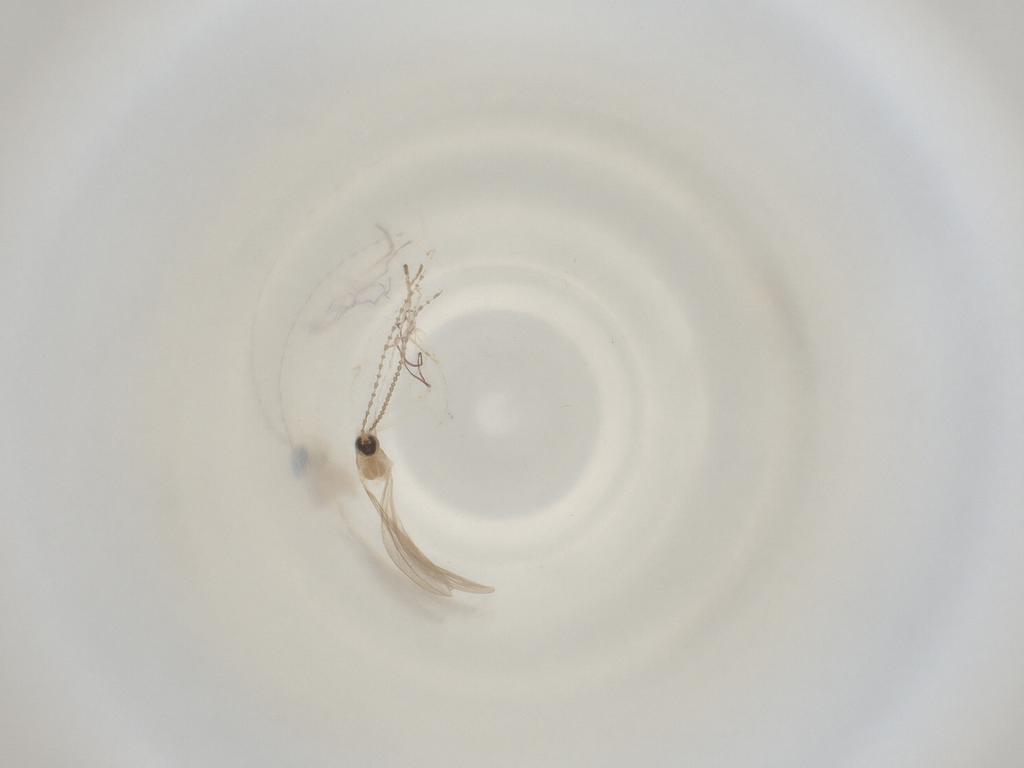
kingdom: Animalia
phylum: Arthropoda
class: Insecta
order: Diptera
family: Cecidomyiidae
